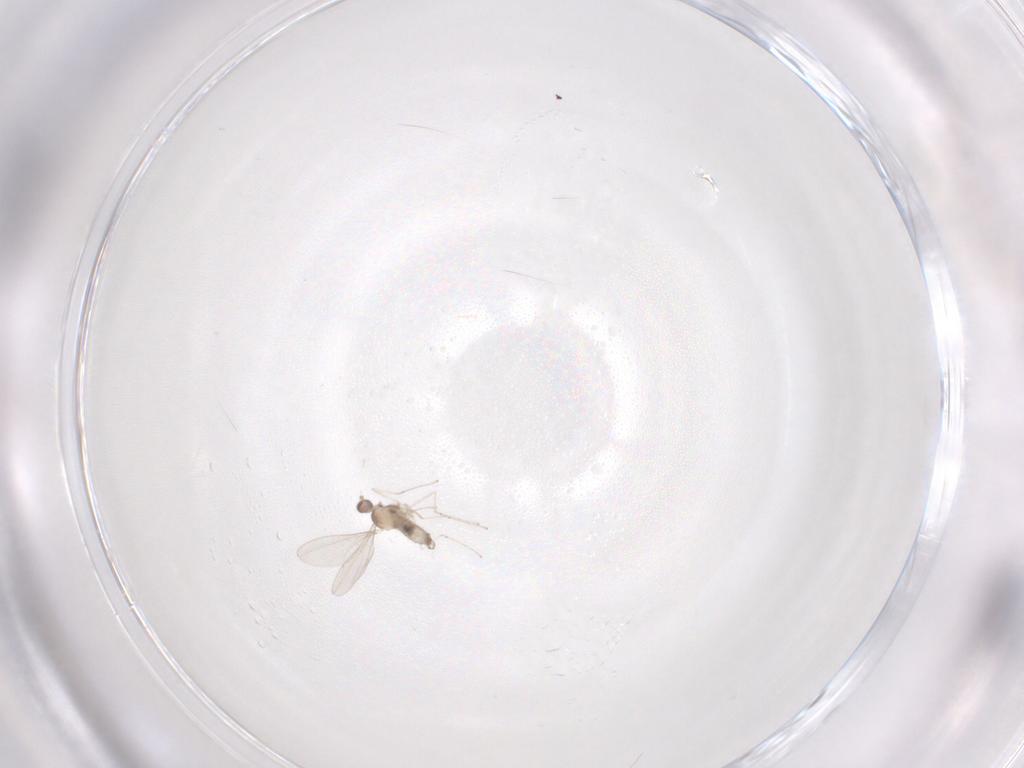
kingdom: Animalia
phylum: Arthropoda
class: Insecta
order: Diptera
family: Cecidomyiidae
